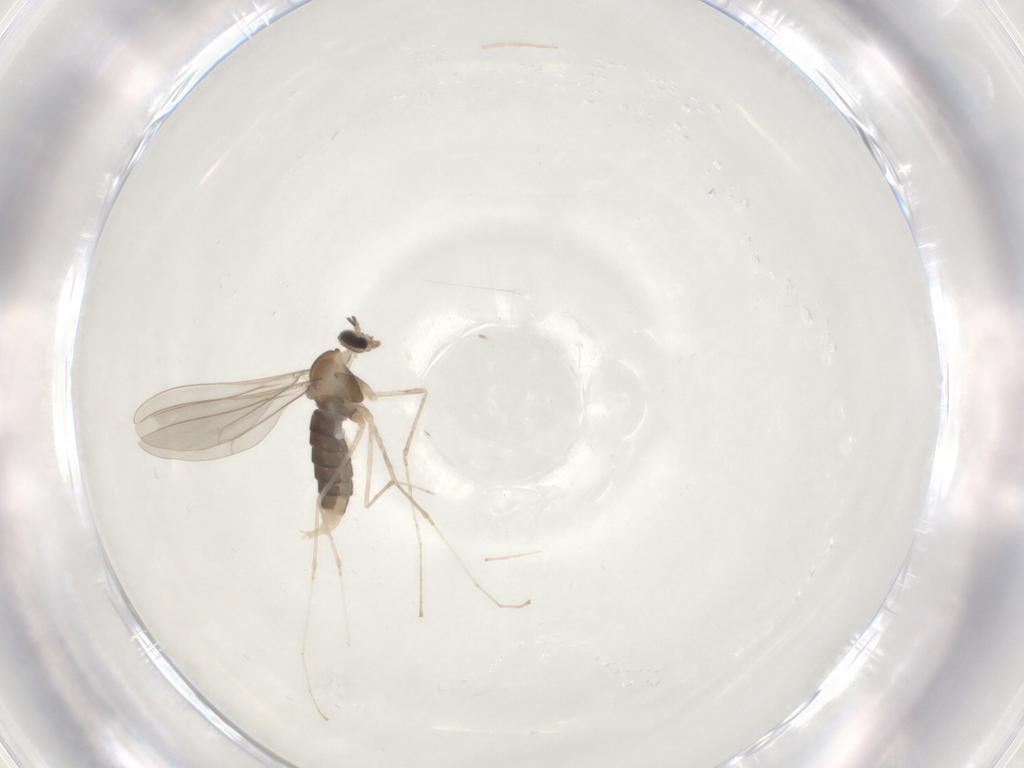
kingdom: Animalia
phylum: Arthropoda
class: Insecta
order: Diptera
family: Cecidomyiidae
